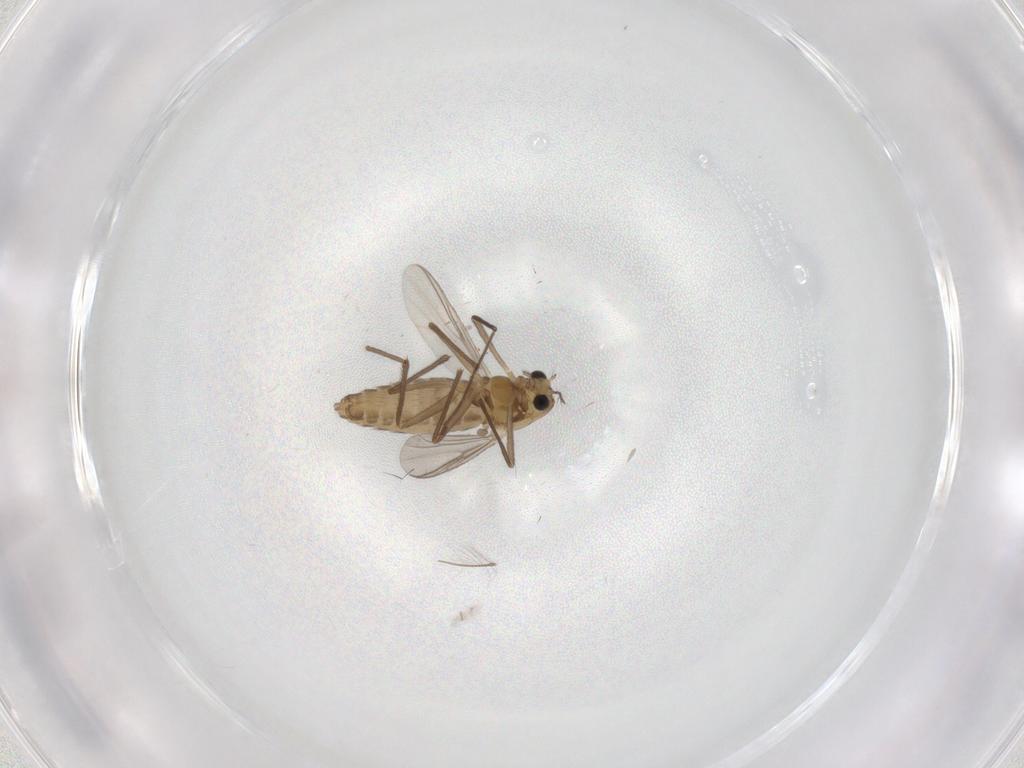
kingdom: Animalia
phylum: Arthropoda
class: Insecta
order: Diptera
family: Chironomidae
